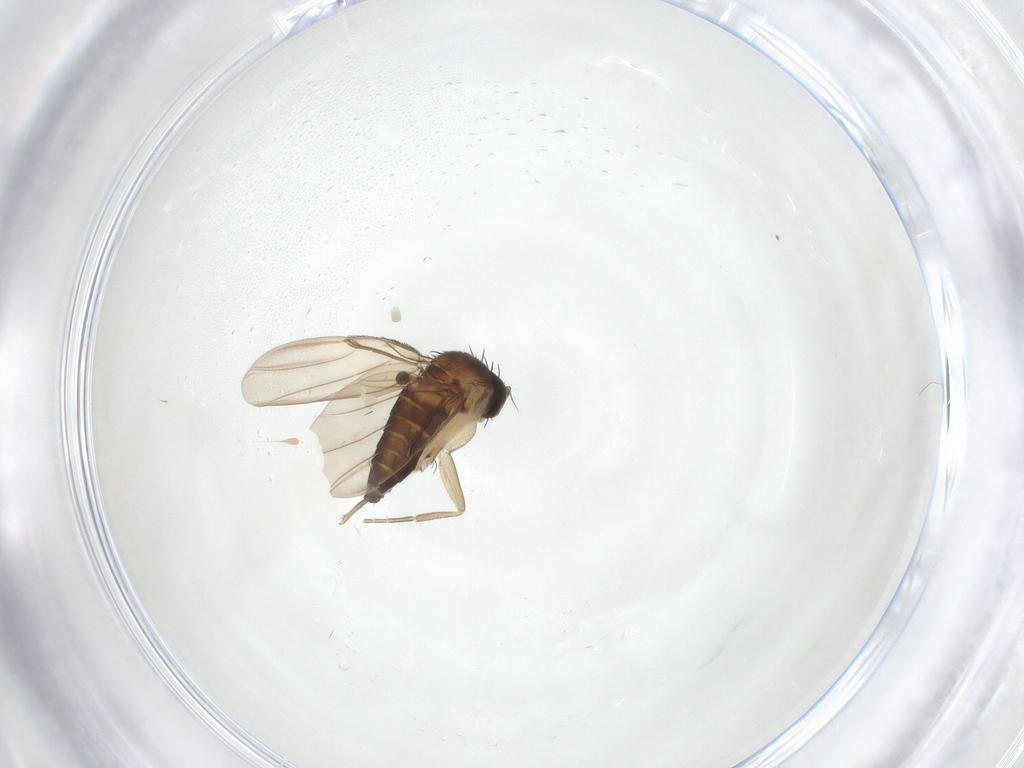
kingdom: Animalia
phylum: Arthropoda
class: Insecta
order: Diptera
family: Phoridae
